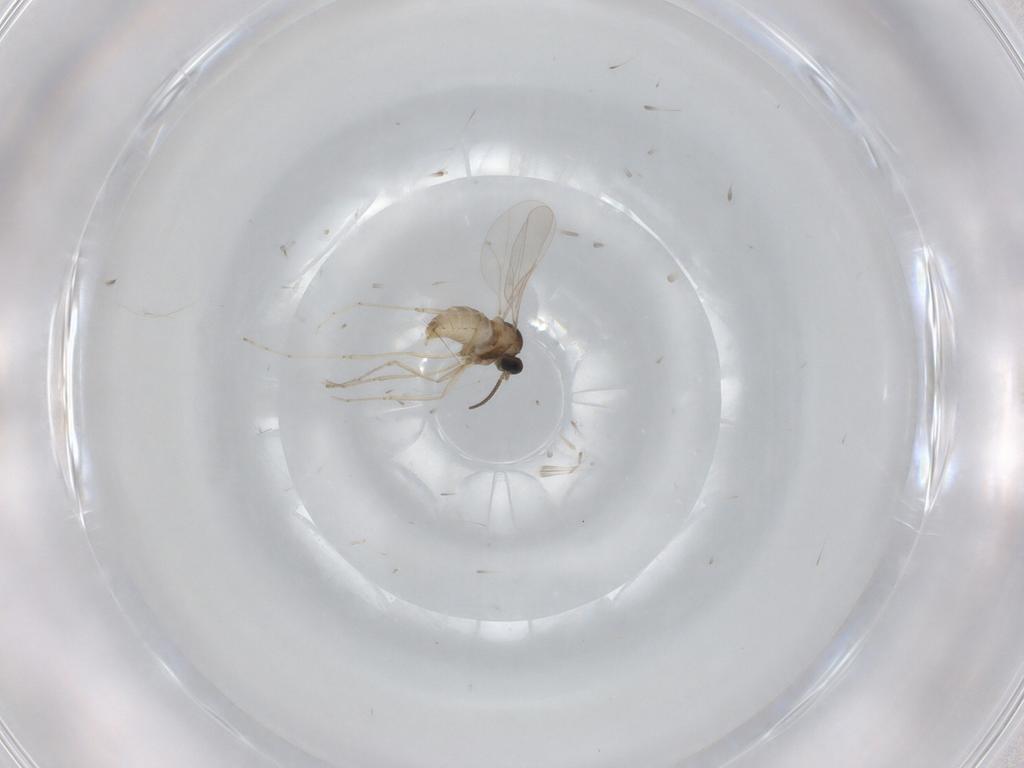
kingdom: Animalia
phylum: Arthropoda
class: Insecta
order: Diptera
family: Cecidomyiidae
